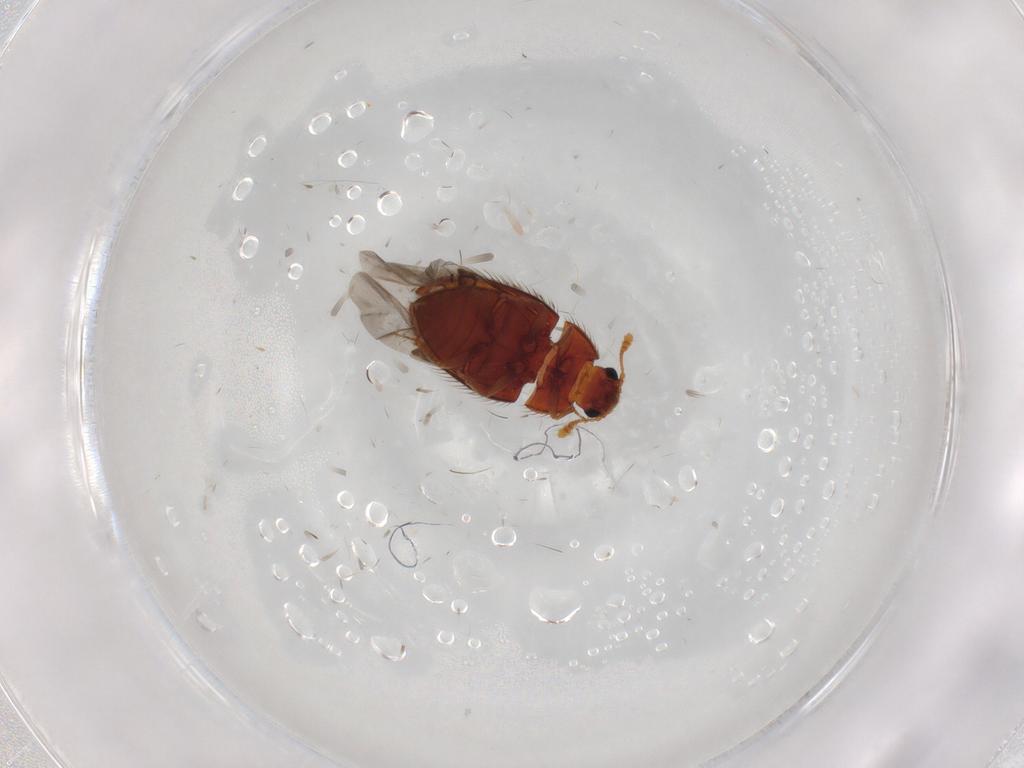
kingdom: Animalia
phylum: Arthropoda
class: Insecta
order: Coleoptera
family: Biphyllidae
